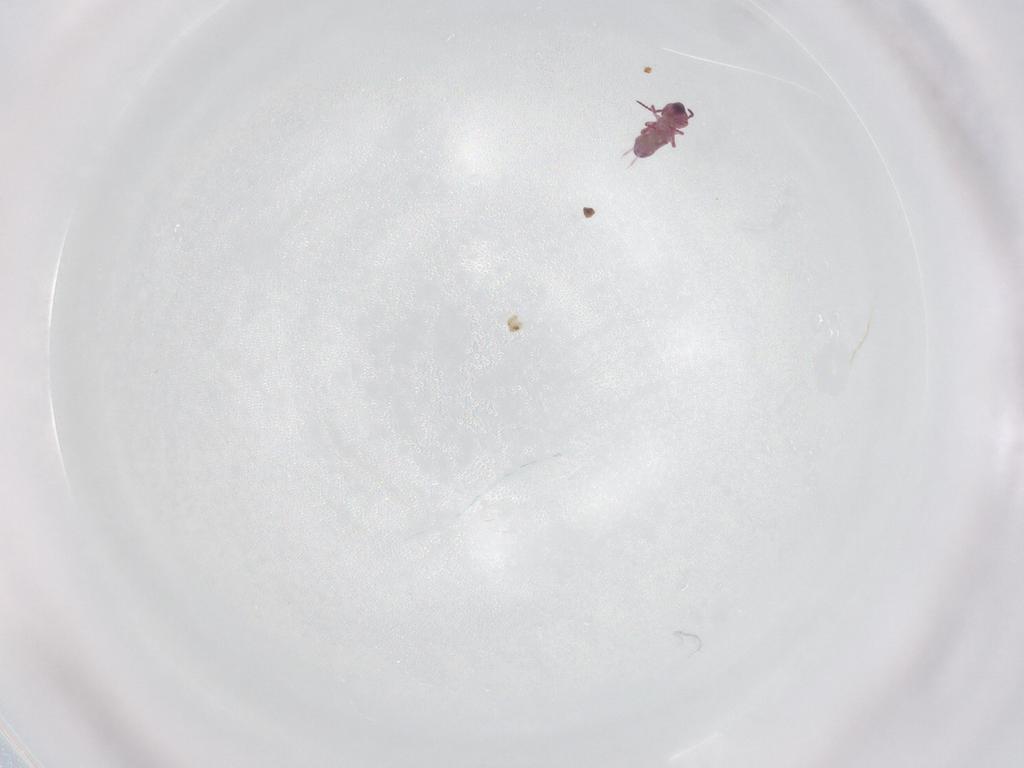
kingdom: Animalia
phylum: Arthropoda
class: Collembola
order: Symphypleona
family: Sminthurididae
